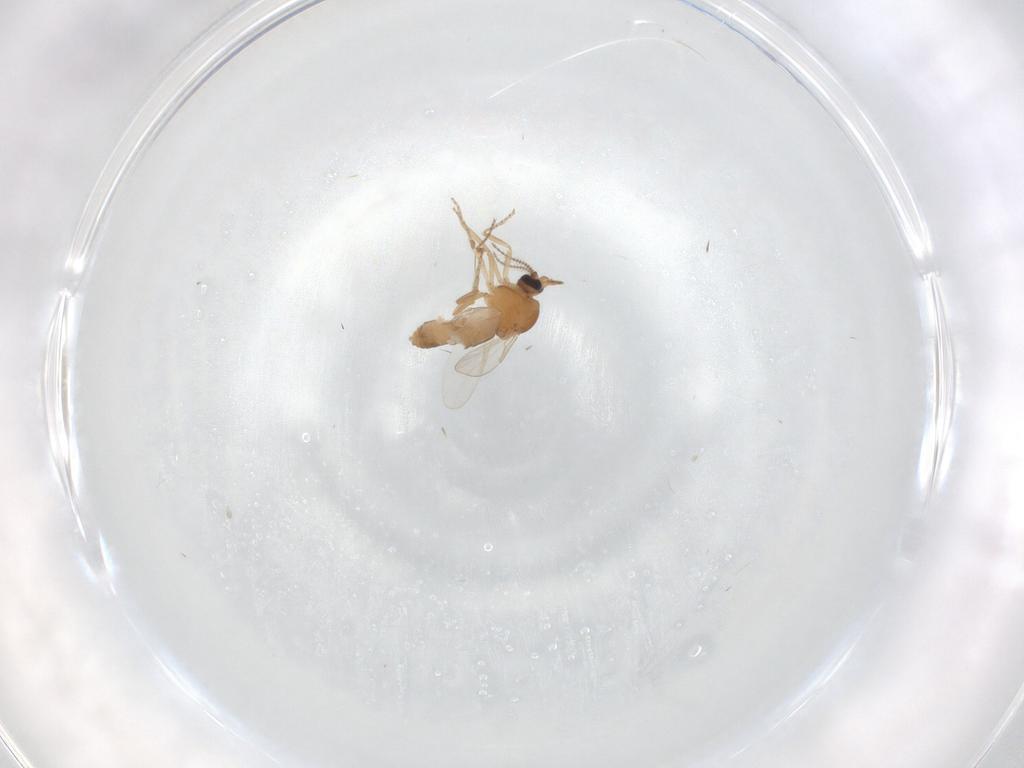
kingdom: Animalia
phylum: Arthropoda
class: Insecta
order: Diptera
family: Ceratopogonidae
